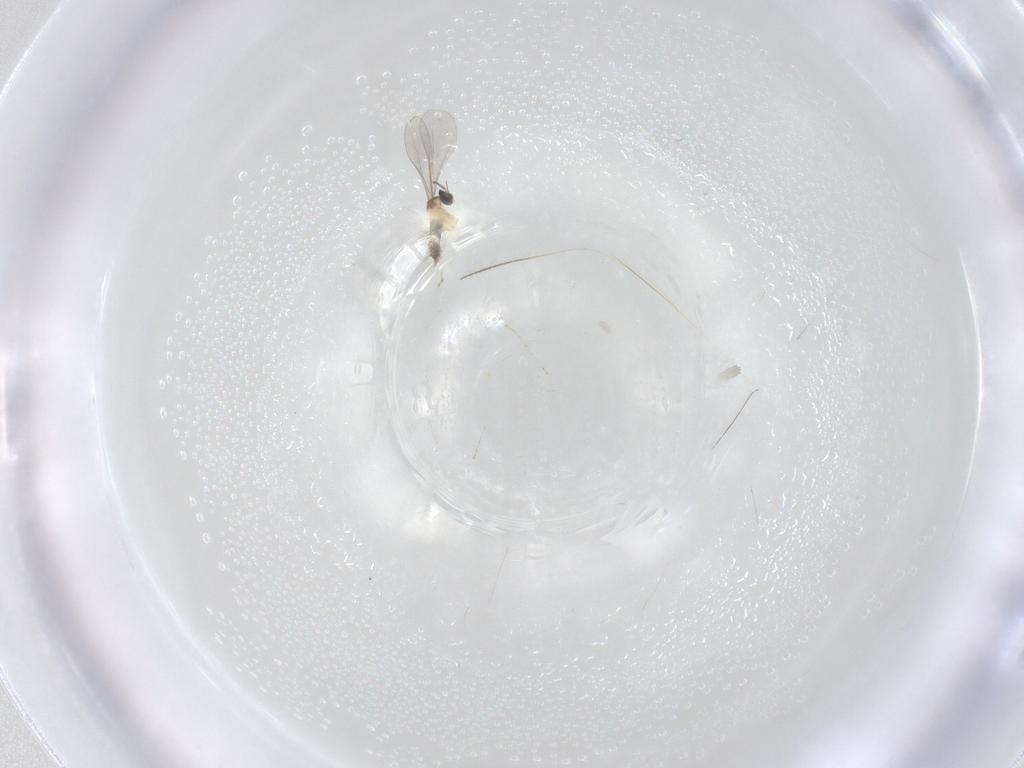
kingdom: Animalia
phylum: Arthropoda
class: Insecta
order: Diptera
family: Cecidomyiidae
